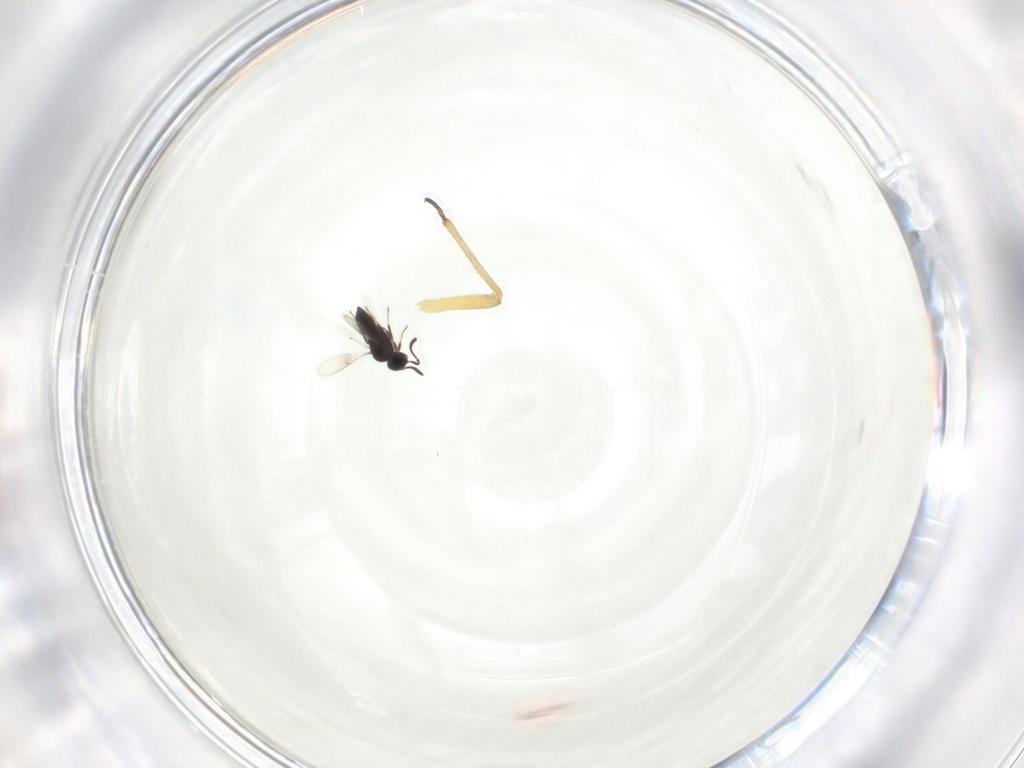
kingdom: Animalia
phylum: Arthropoda
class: Insecta
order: Hymenoptera
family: Scelionidae
